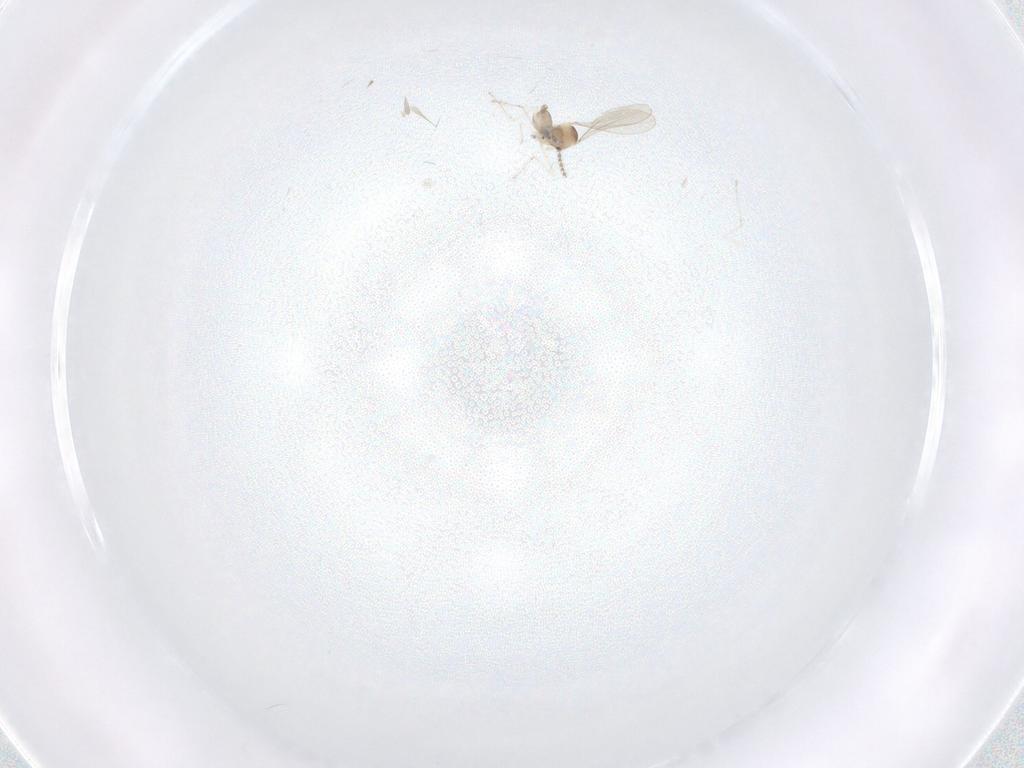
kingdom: Animalia
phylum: Arthropoda
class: Insecta
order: Diptera
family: Cecidomyiidae
